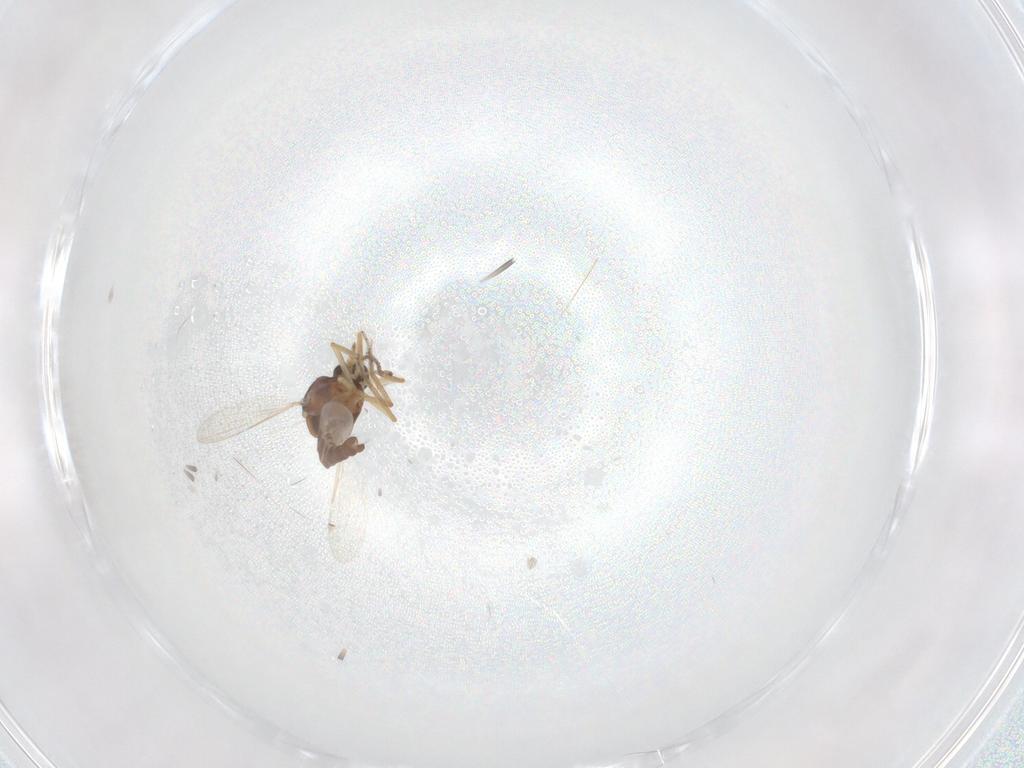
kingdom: Animalia
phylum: Arthropoda
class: Insecta
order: Diptera
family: Ceratopogonidae
